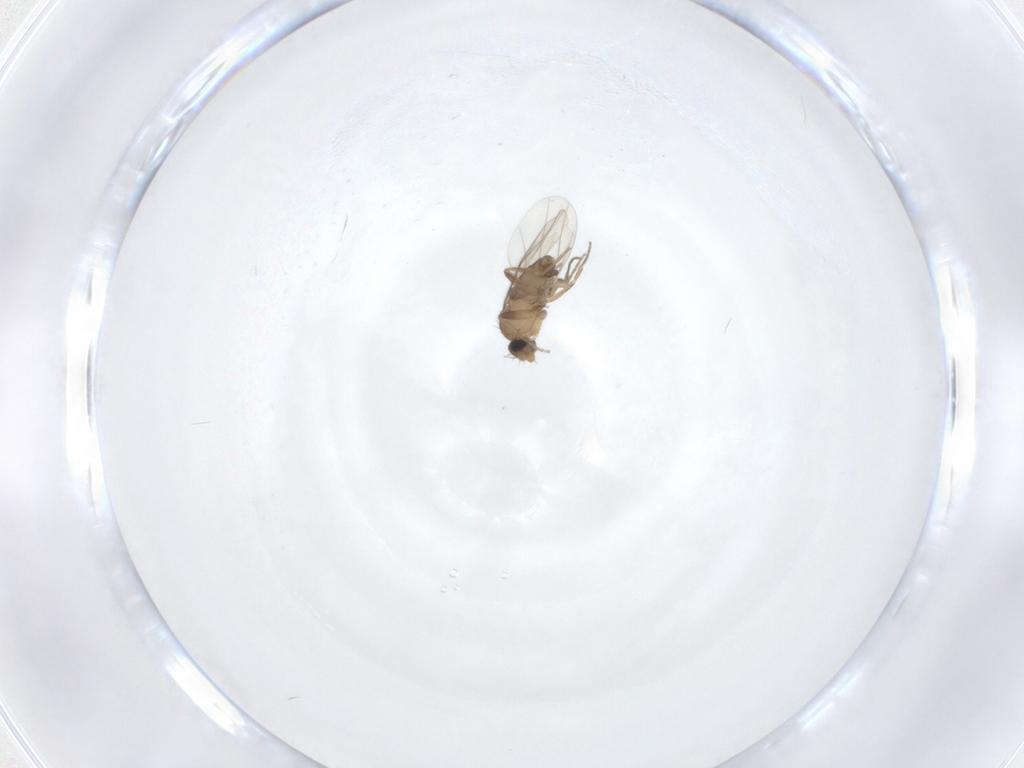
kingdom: Animalia
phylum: Arthropoda
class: Insecta
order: Diptera
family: Phoridae
